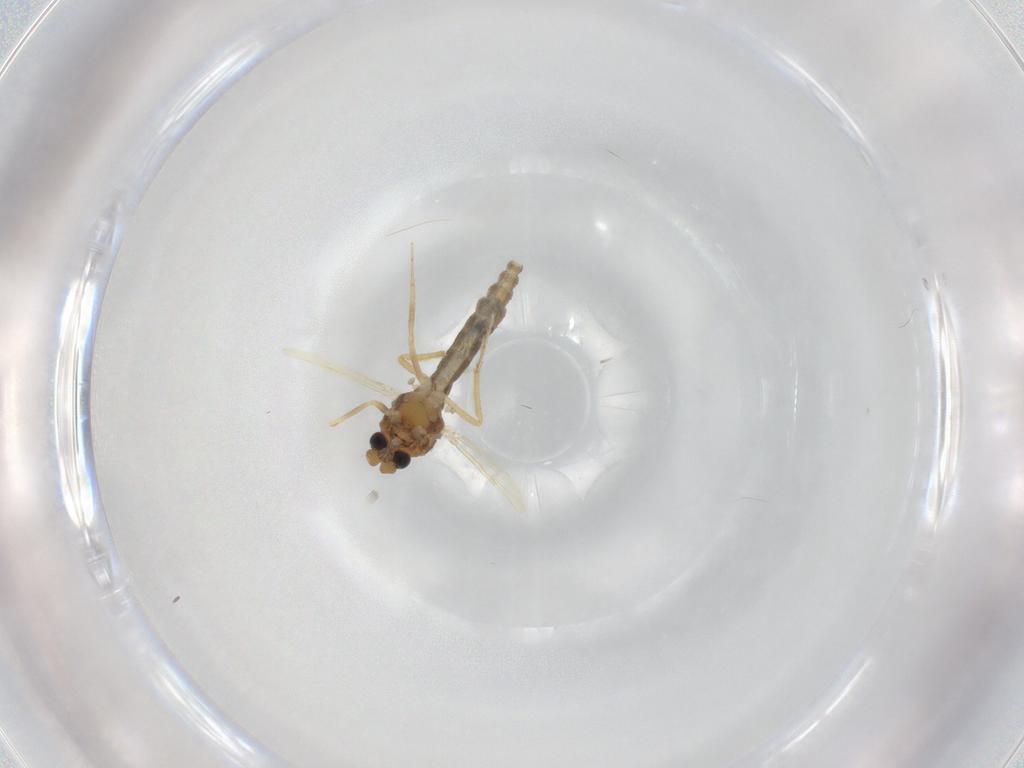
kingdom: Animalia
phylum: Arthropoda
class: Insecta
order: Diptera
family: Ceratopogonidae
